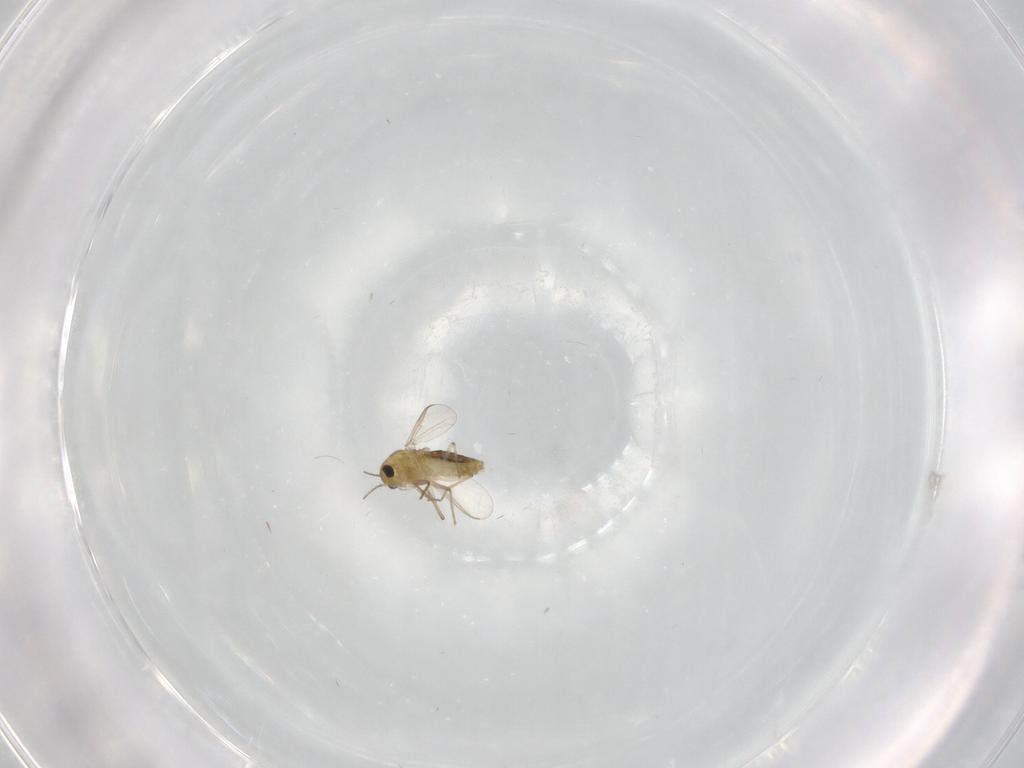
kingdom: Animalia
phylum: Arthropoda
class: Insecta
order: Diptera
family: Chironomidae
